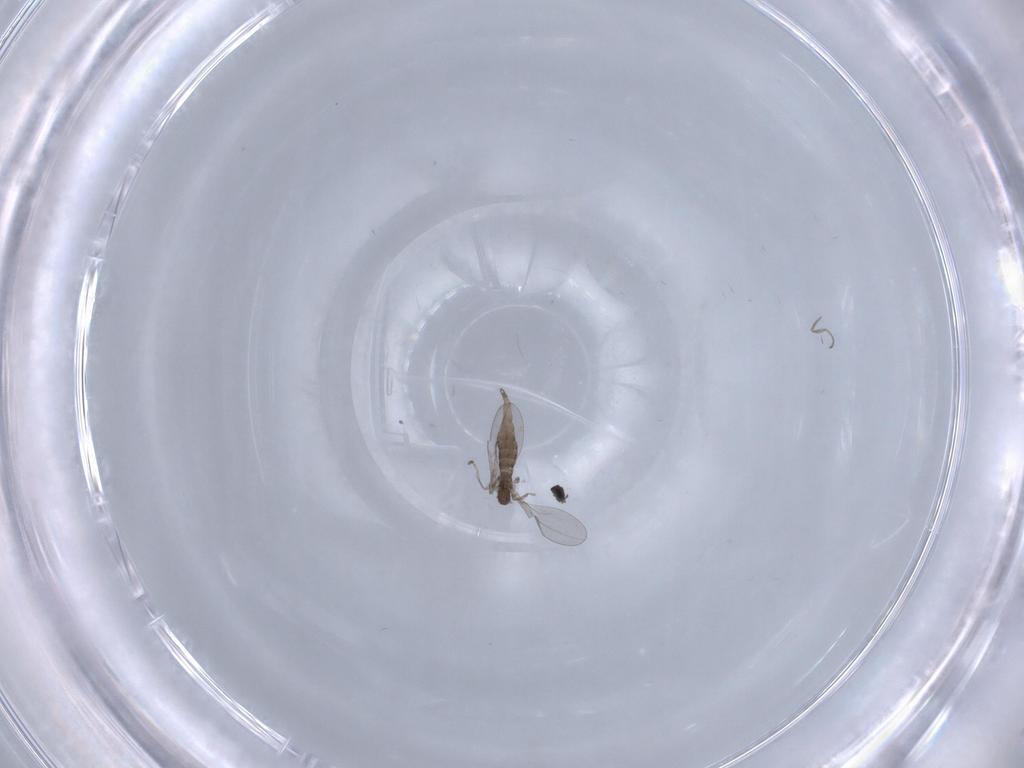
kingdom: Animalia
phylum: Arthropoda
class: Insecta
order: Diptera
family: Cecidomyiidae
